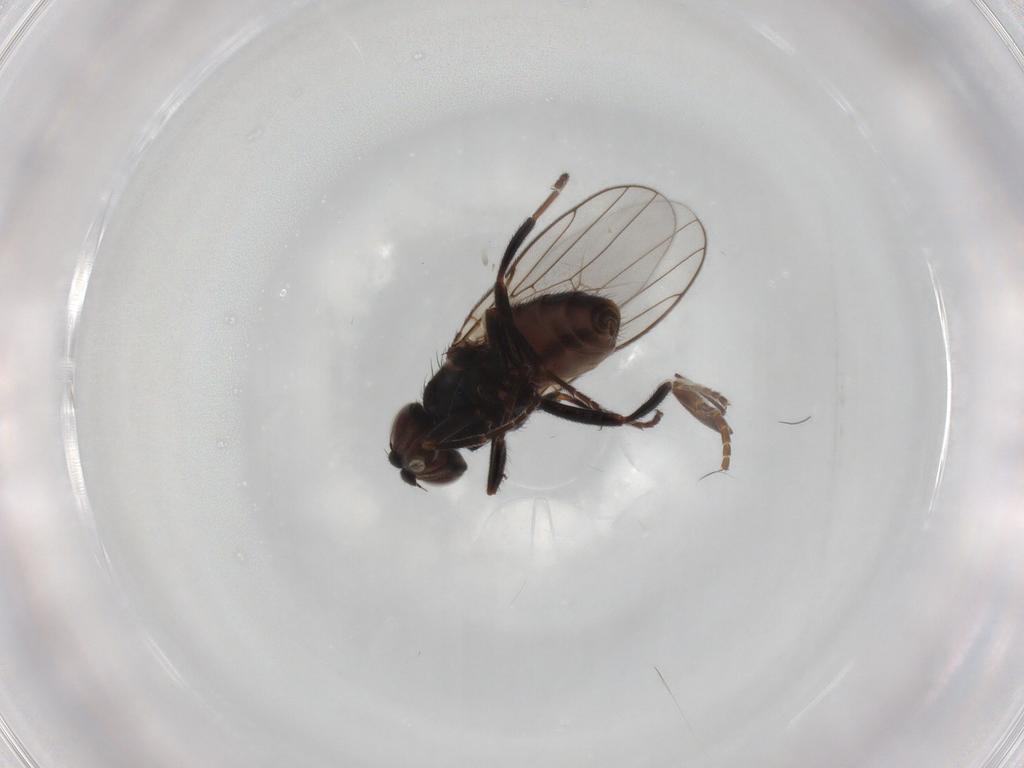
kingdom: Animalia
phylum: Arthropoda
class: Insecta
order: Diptera
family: Chloropidae
